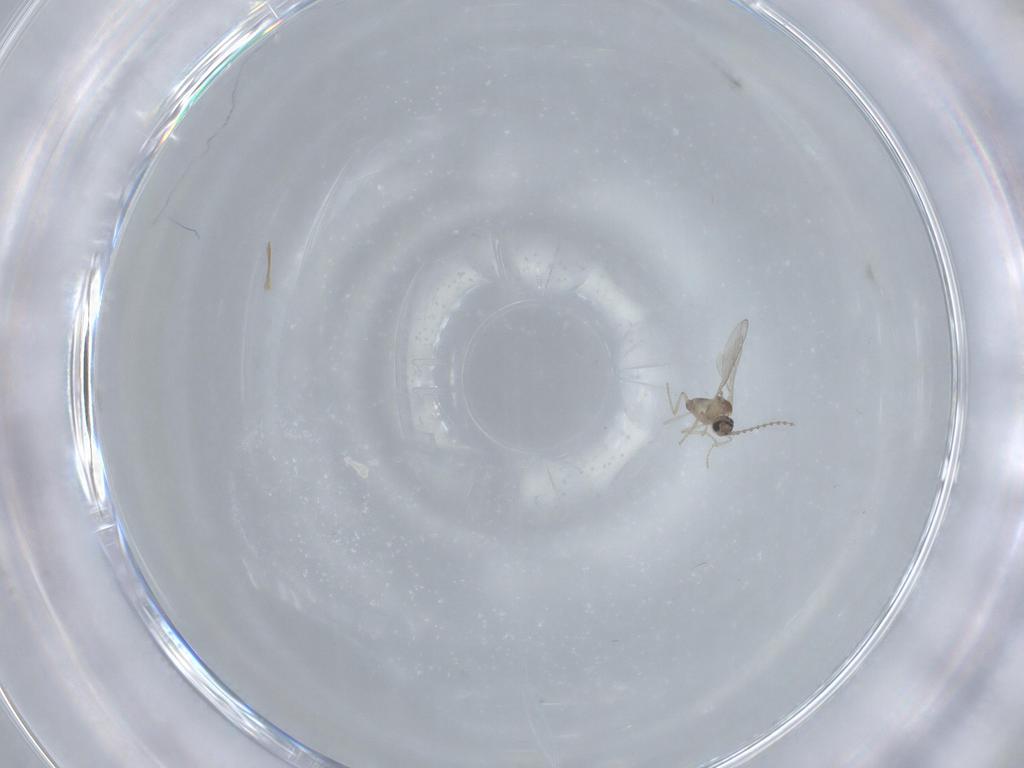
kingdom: Animalia
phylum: Arthropoda
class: Insecta
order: Diptera
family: Cecidomyiidae
